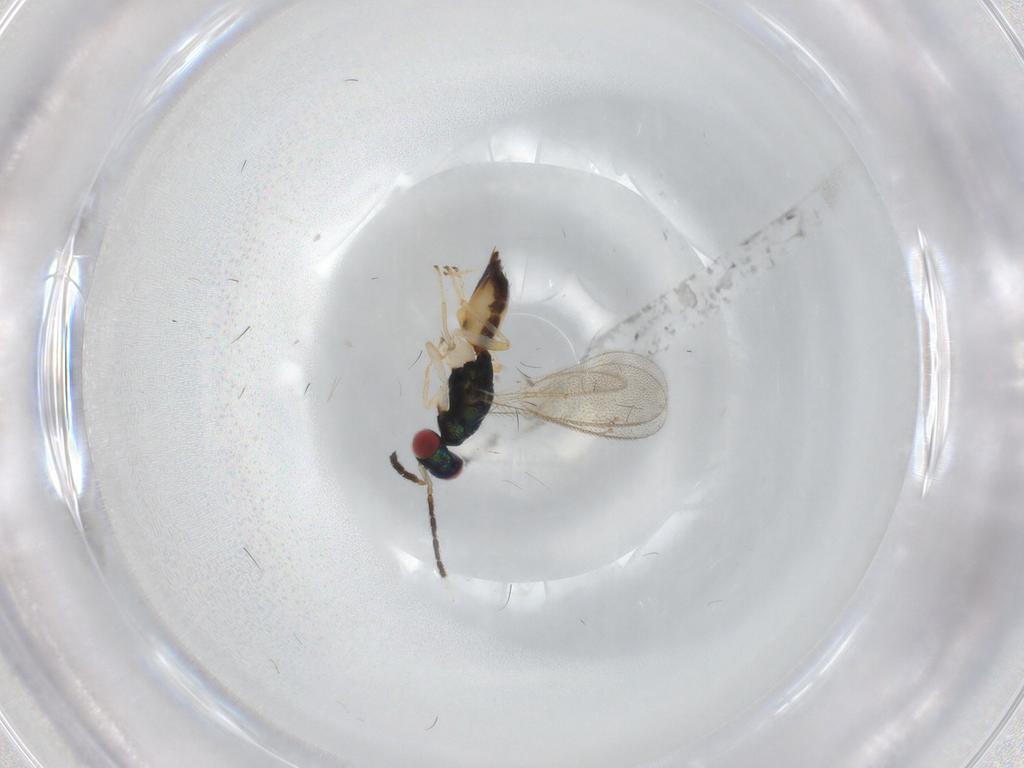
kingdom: Animalia
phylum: Arthropoda
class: Insecta
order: Hymenoptera
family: Eulophidae
